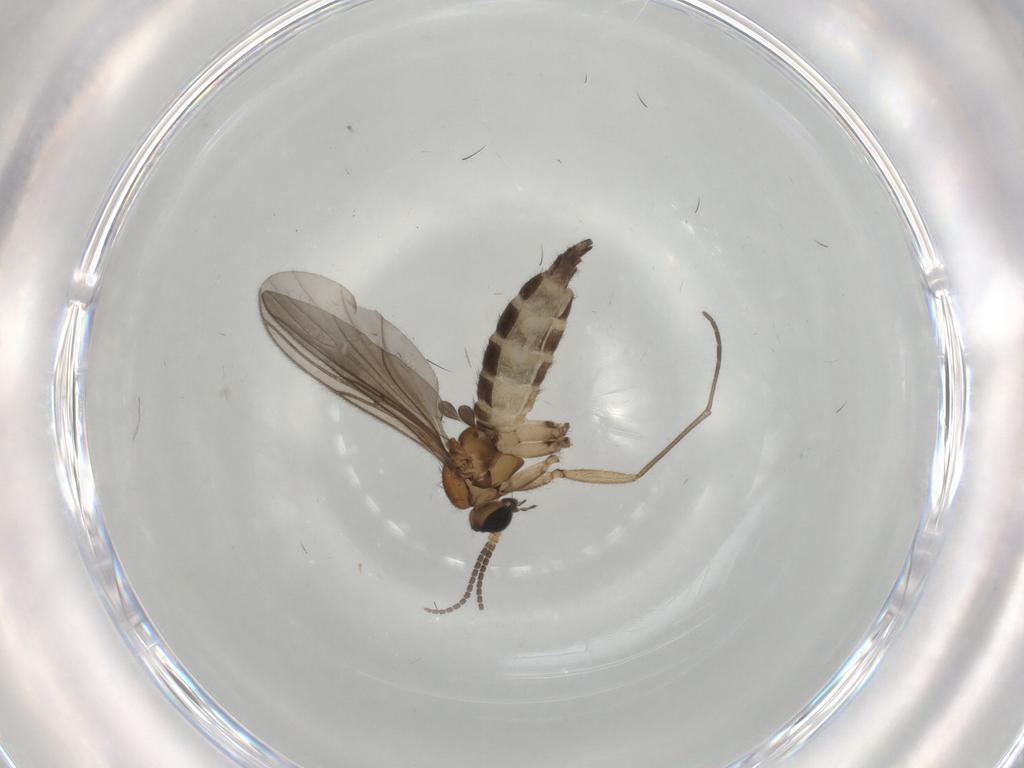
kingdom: Animalia
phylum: Arthropoda
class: Insecta
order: Diptera
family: Sciaridae
